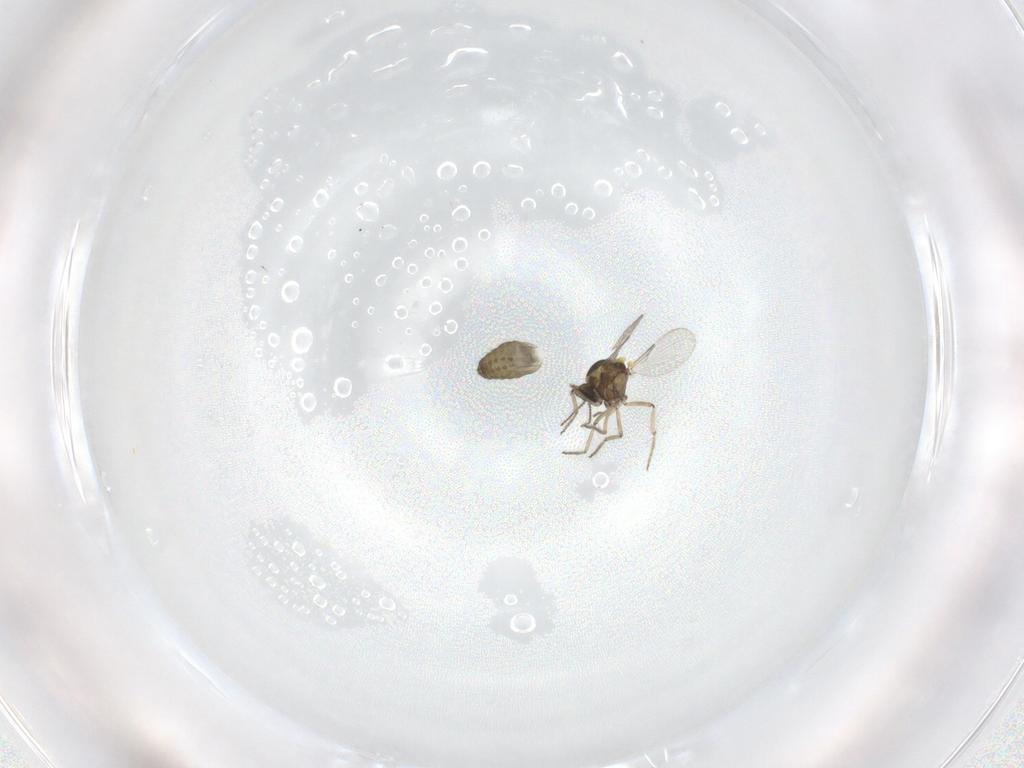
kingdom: Animalia
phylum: Arthropoda
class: Insecta
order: Diptera
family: Ceratopogonidae
